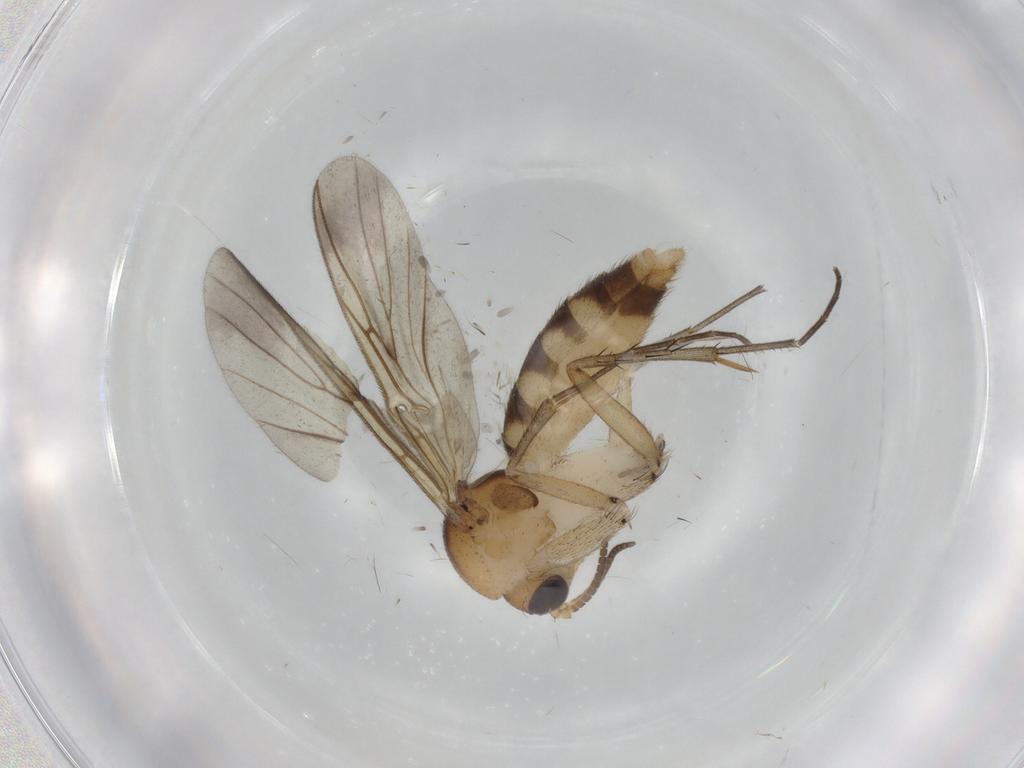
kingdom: Animalia
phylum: Arthropoda
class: Insecta
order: Diptera
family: Mycetophilidae
